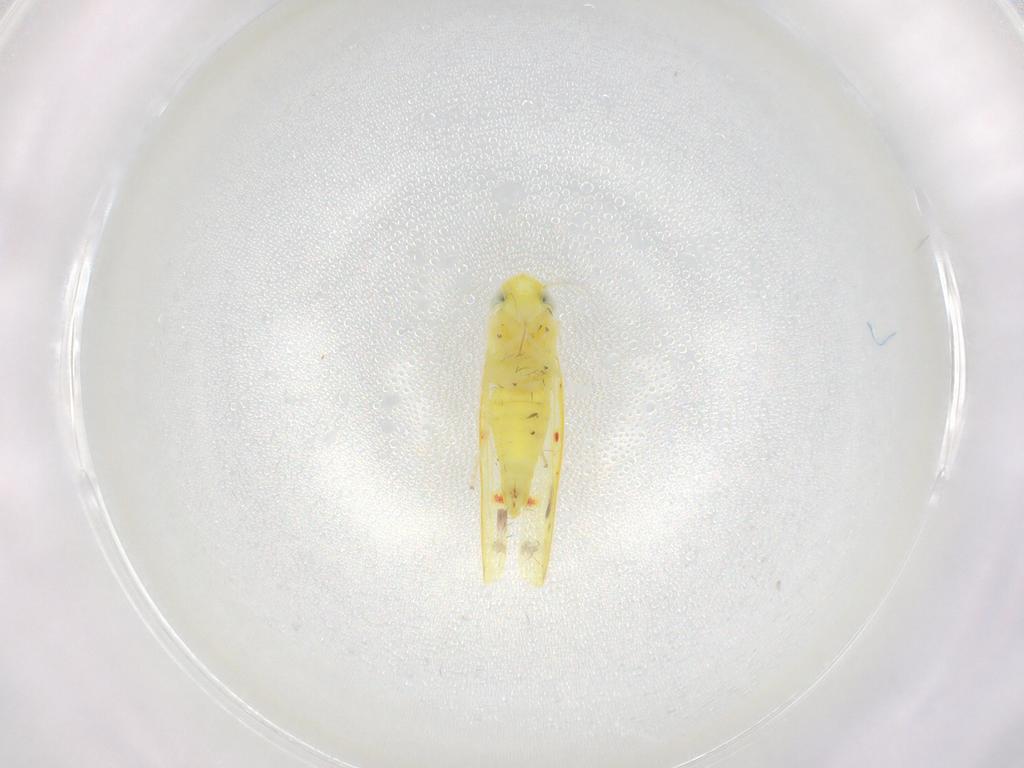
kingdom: Animalia
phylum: Arthropoda
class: Insecta
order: Hemiptera
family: Cicadellidae
